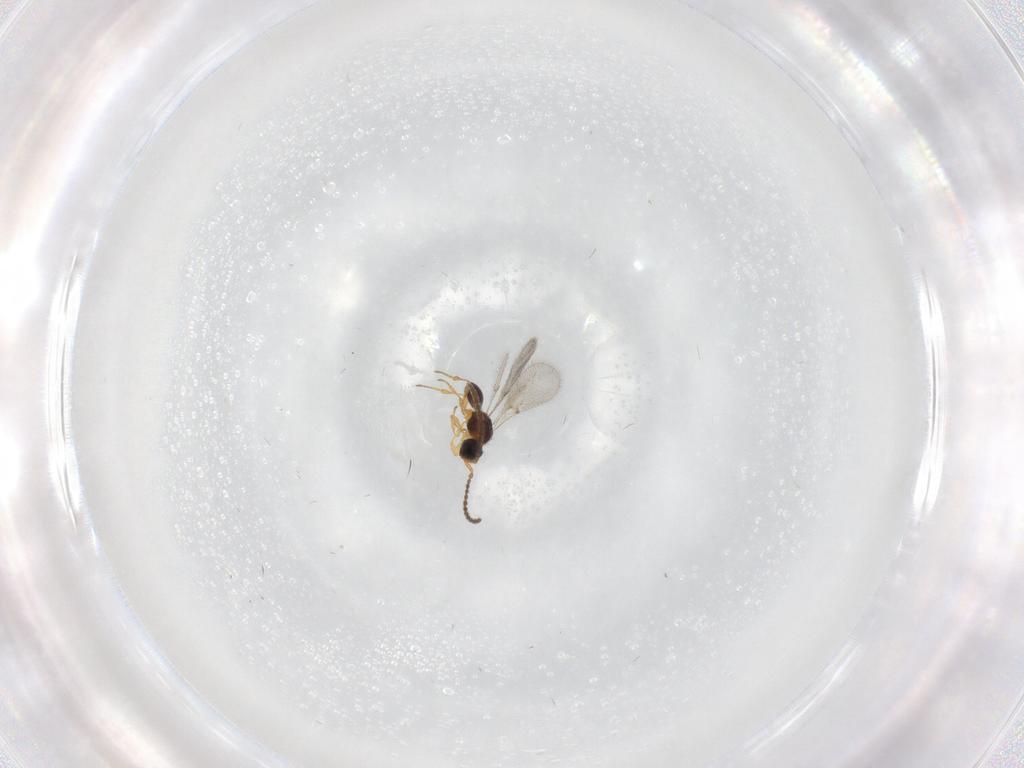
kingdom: Animalia
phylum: Arthropoda
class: Insecta
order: Hymenoptera
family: Diapriidae
